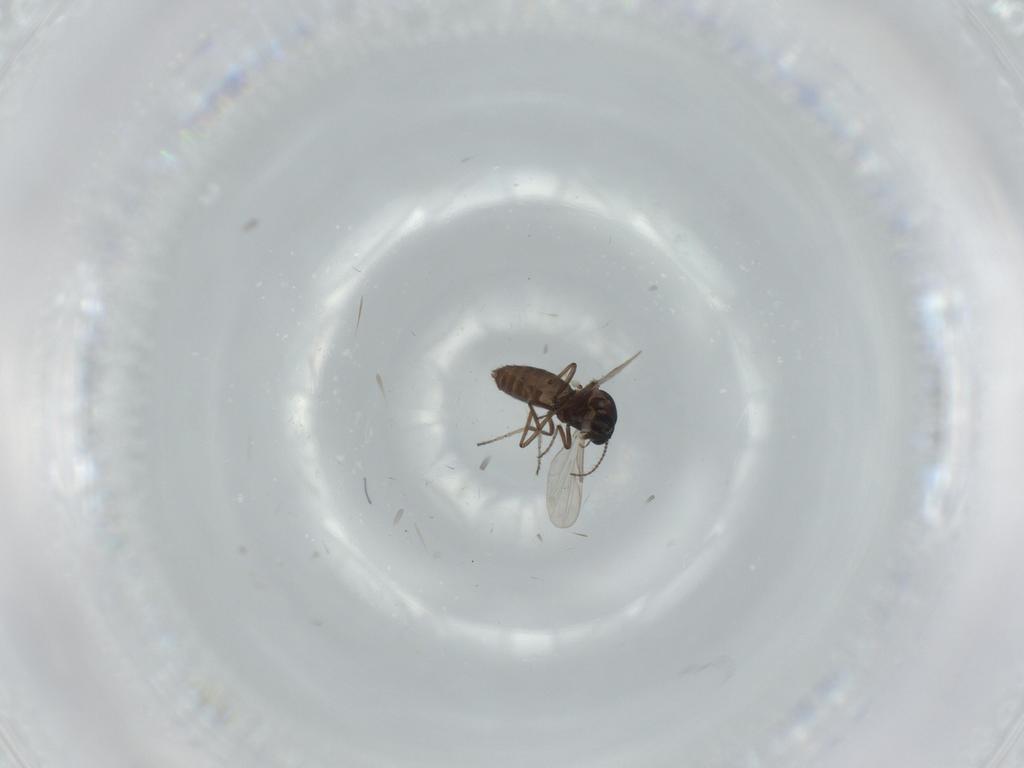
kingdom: Animalia
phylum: Arthropoda
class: Insecta
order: Diptera
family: Ceratopogonidae
